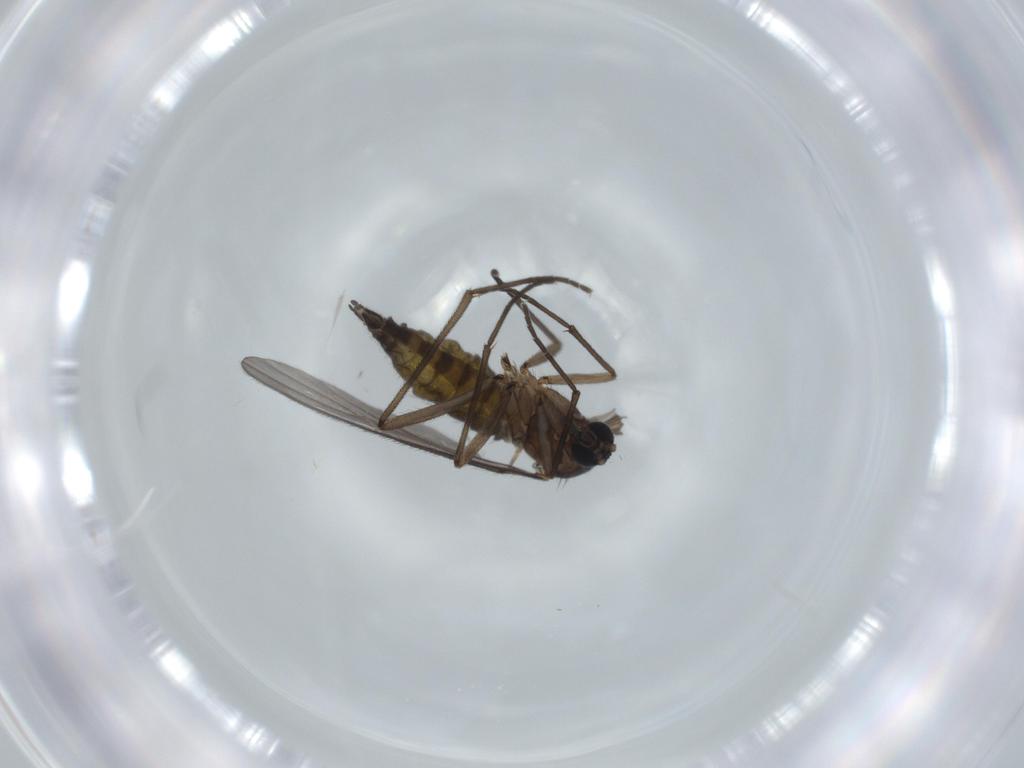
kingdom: Animalia
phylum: Arthropoda
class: Insecta
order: Diptera
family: Sciaridae
